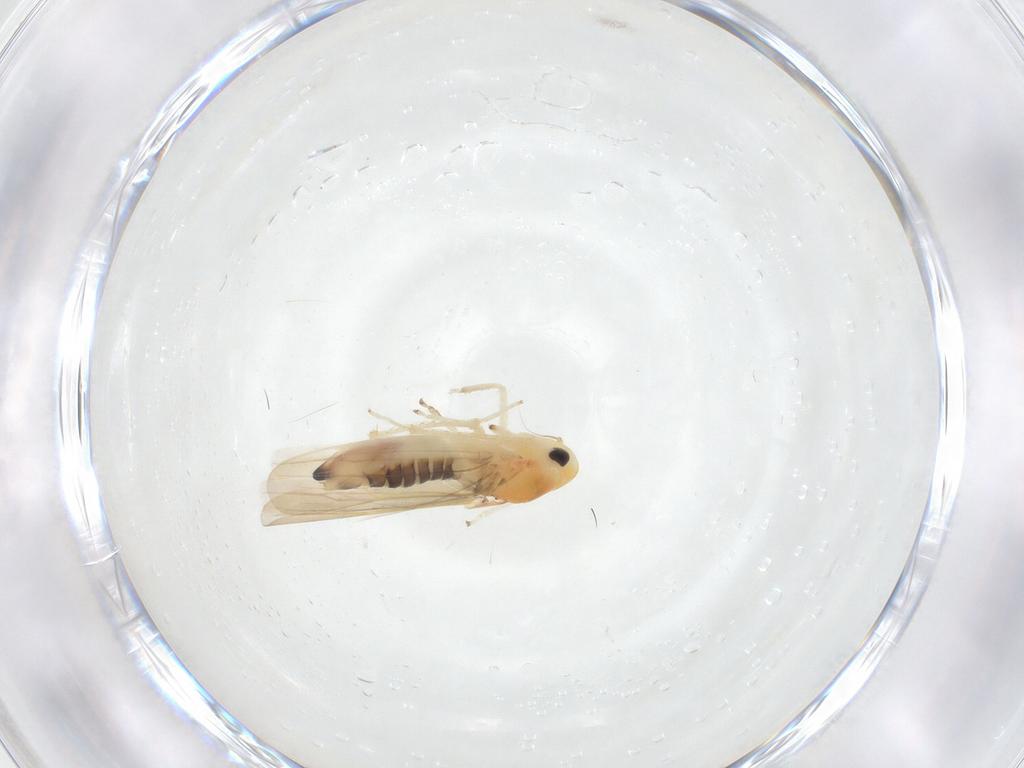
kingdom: Animalia
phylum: Arthropoda
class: Insecta
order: Hemiptera
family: Cicadellidae
